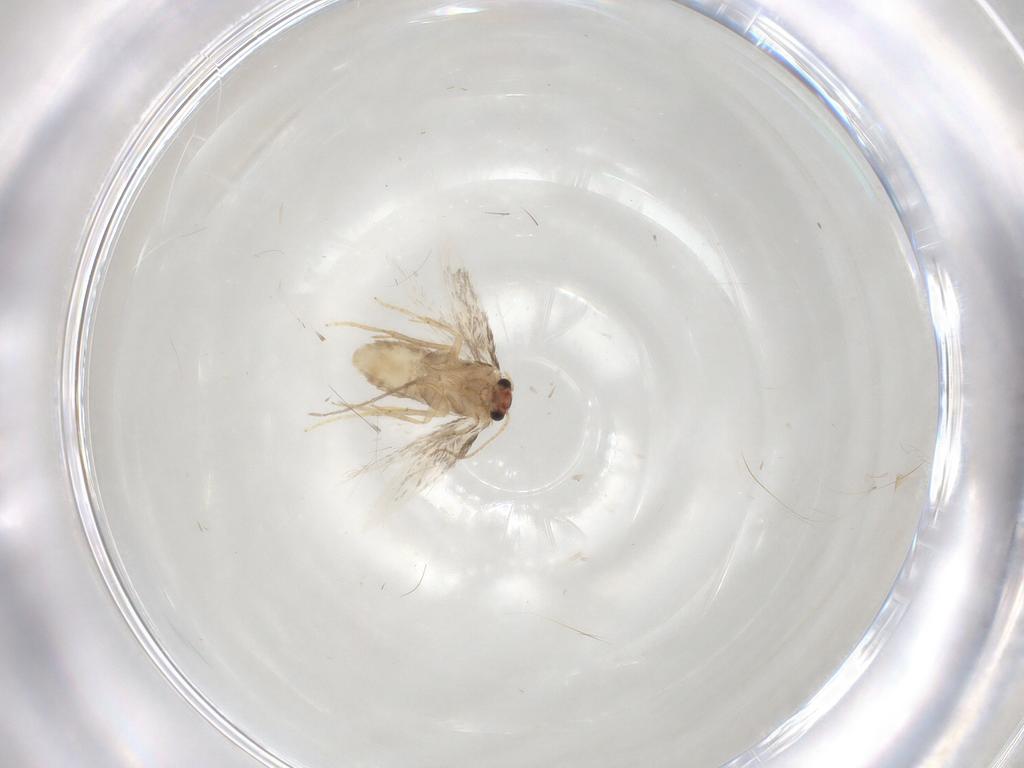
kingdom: Animalia
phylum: Arthropoda
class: Insecta
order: Lepidoptera
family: Nepticulidae
